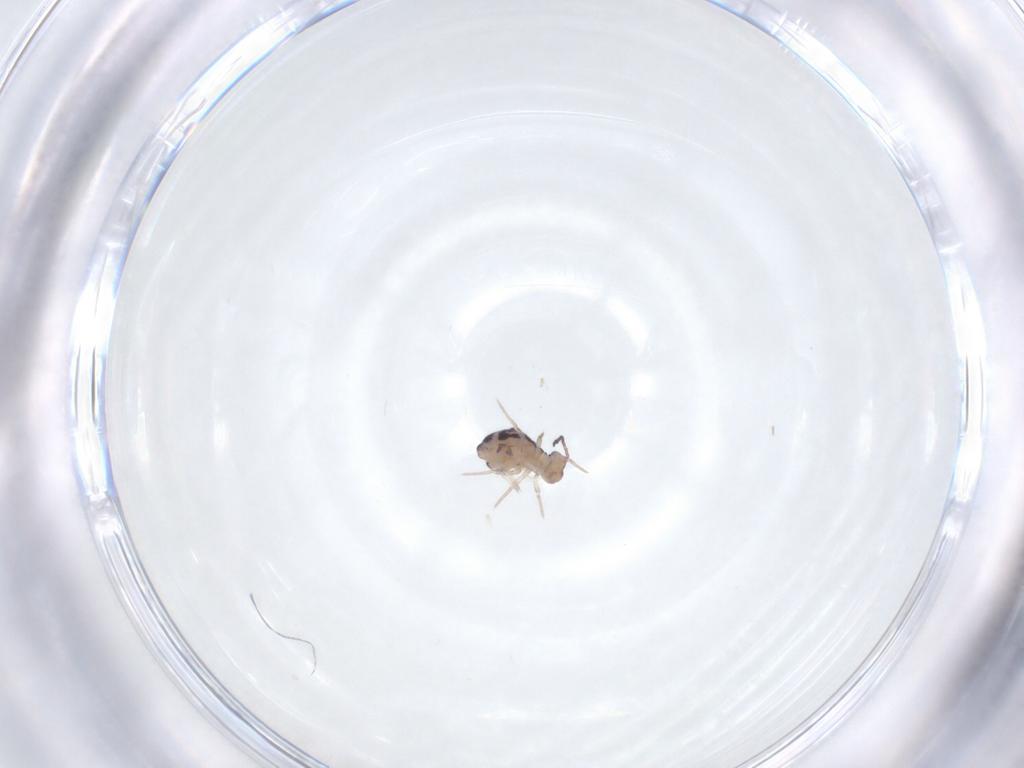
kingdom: Animalia
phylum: Arthropoda
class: Collembola
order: Symphypleona
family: Dicyrtomidae
